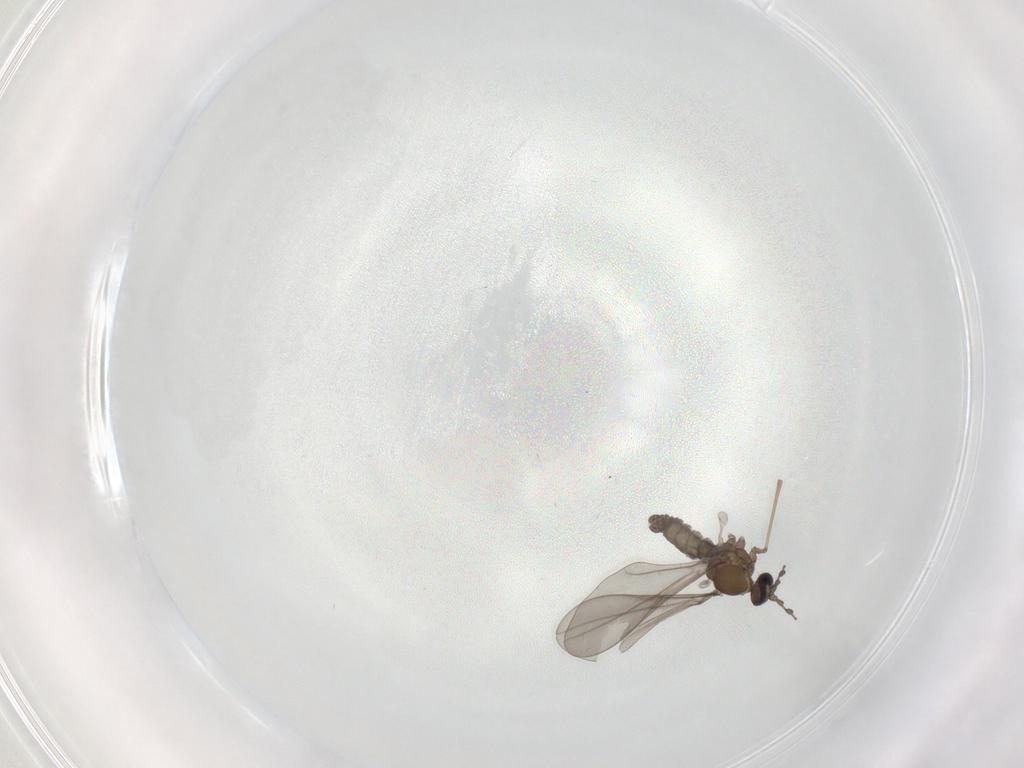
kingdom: Animalia
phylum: Arthropoda
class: Insecta
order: Diptera
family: Cecidomyiidae
